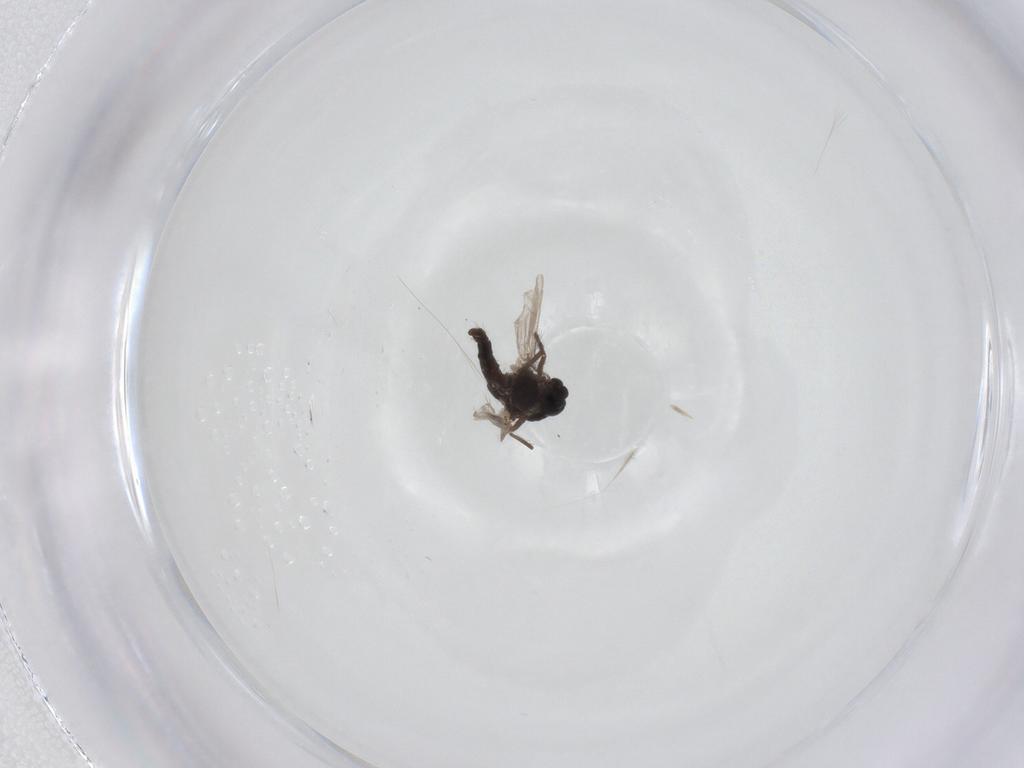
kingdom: Animalia
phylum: Arthropoda
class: Insecta
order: Diptera
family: Chironomidae
